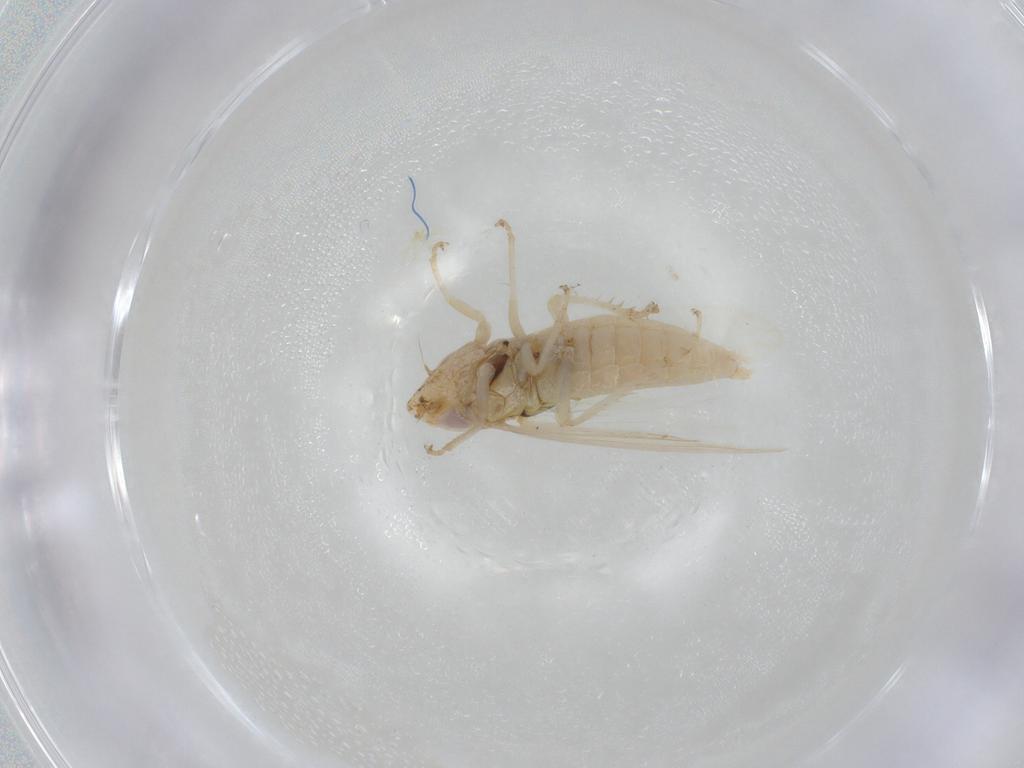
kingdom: Animalia
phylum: Arthropoda
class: Insecta
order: Hemiptera
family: Cicadellidae
